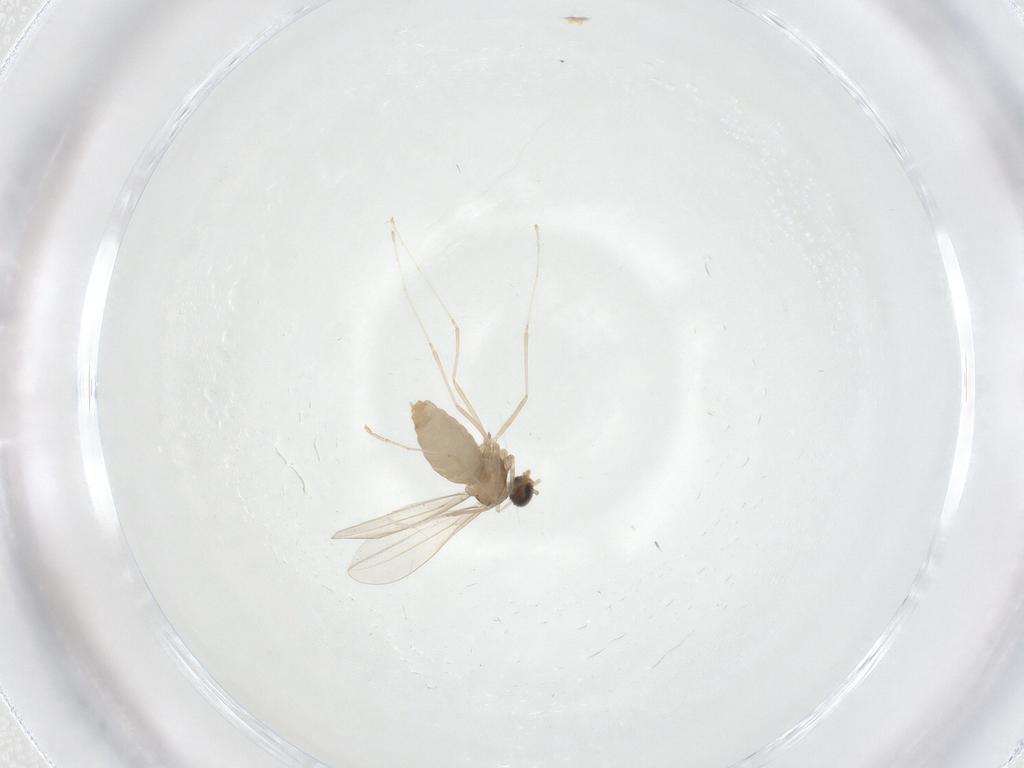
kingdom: Animalia
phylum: Arthropoda
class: Insecta
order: Diptera
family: Cecidomyiidae
